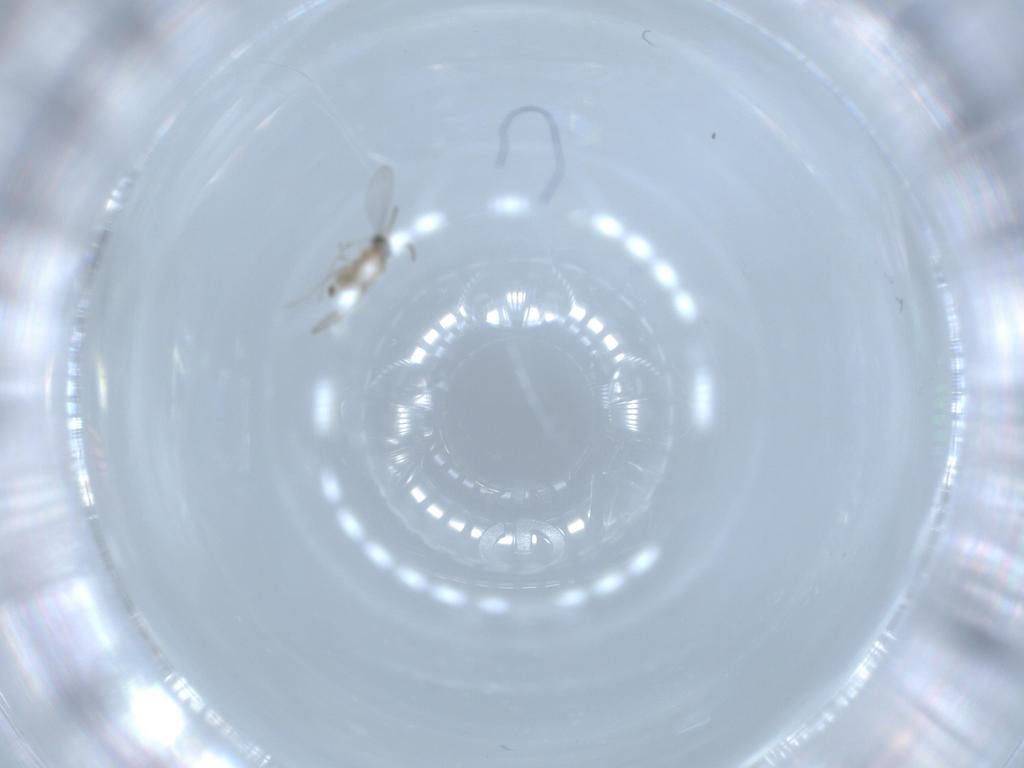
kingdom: Animalia
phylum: Arthropoda
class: Insecta
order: Diptera
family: Cecidomyiidae
